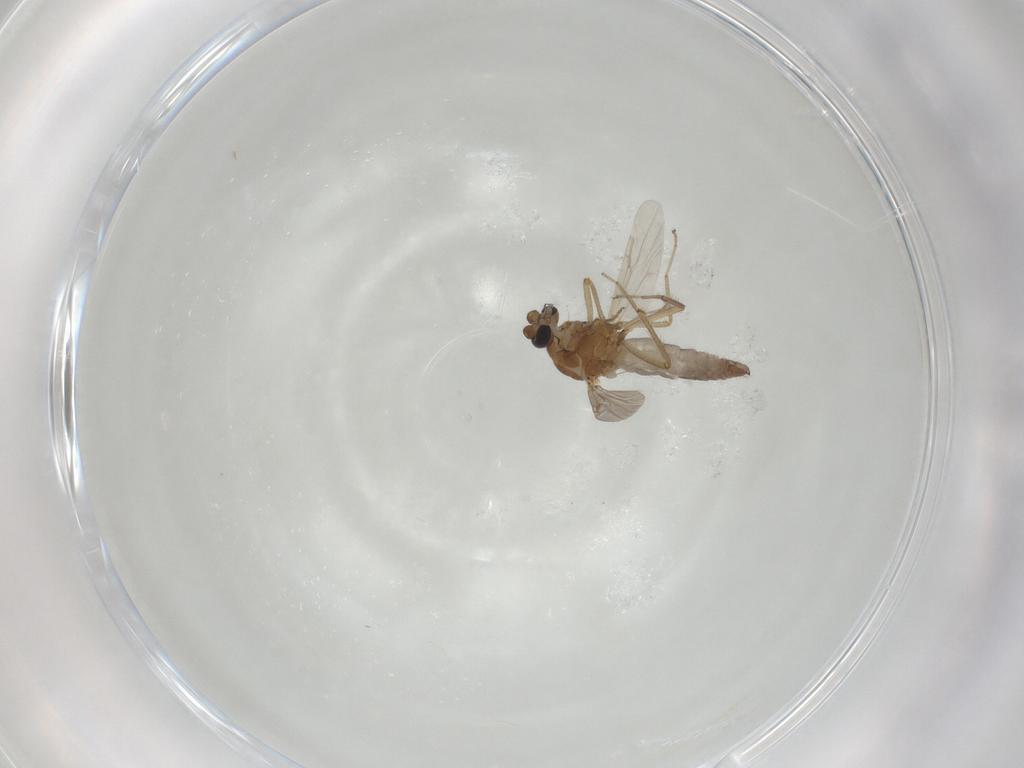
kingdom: Animalia
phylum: Arthropoda
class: Insecta
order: Diptera
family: Ceratopogonidae
